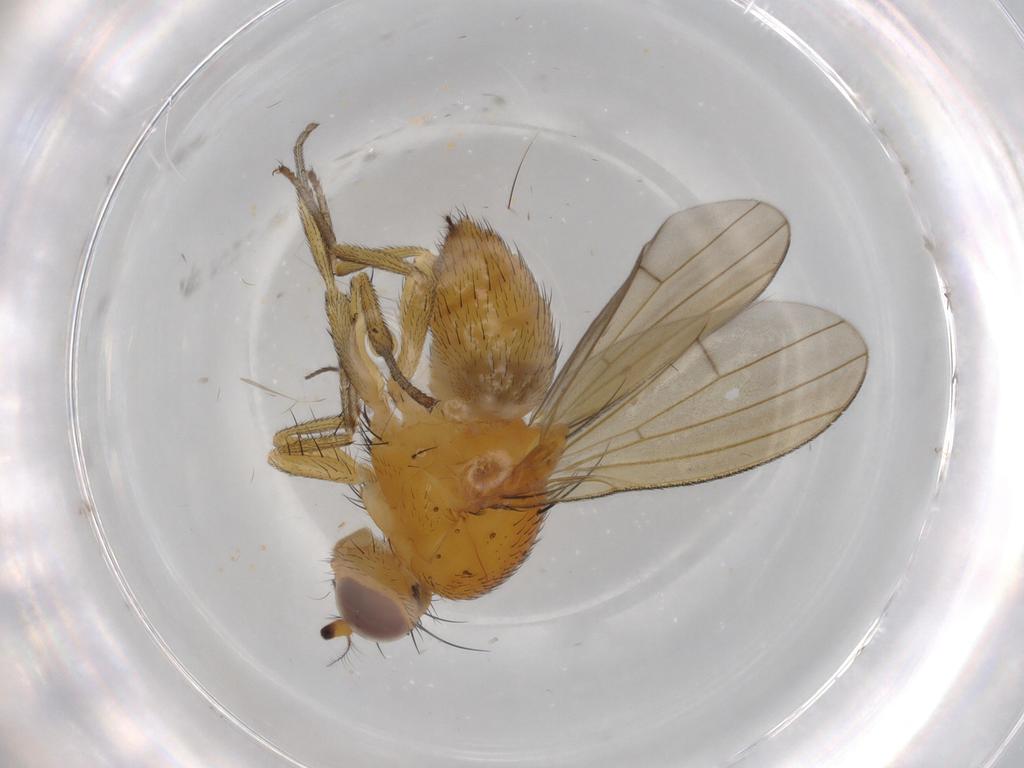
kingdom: Animalia
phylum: Arthropoda
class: Insecta
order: Diptera
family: Lauxaniidae
